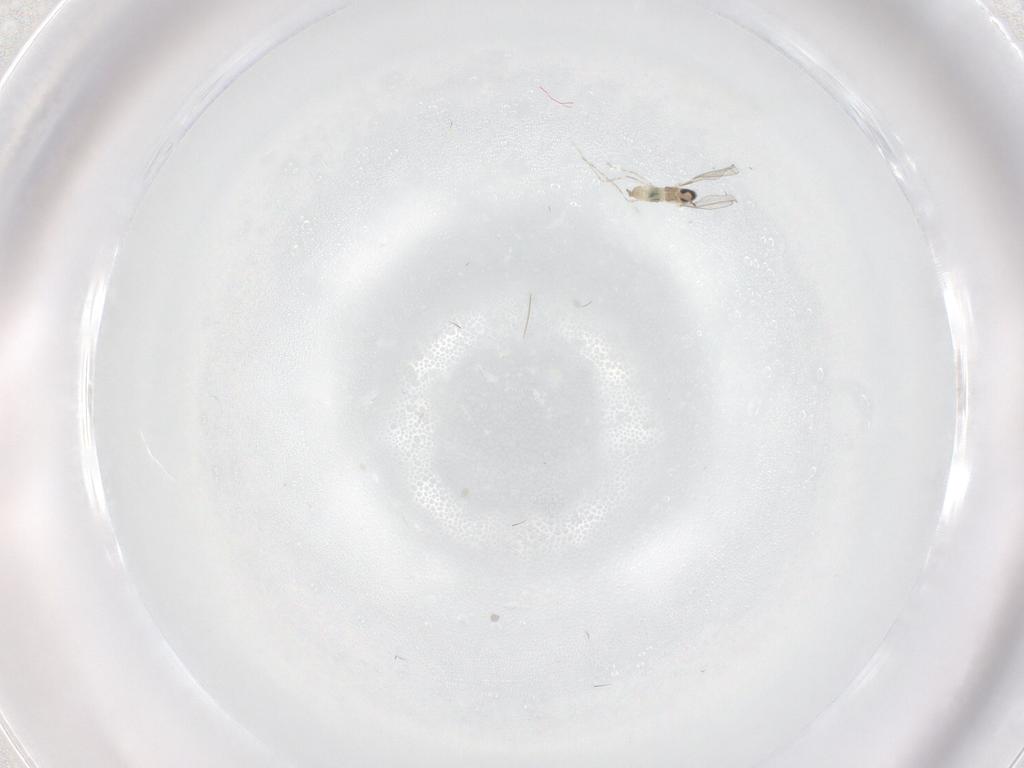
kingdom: Animalia
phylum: Arthropoda
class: Insecta
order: Diptera
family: Cecidomyiidae
